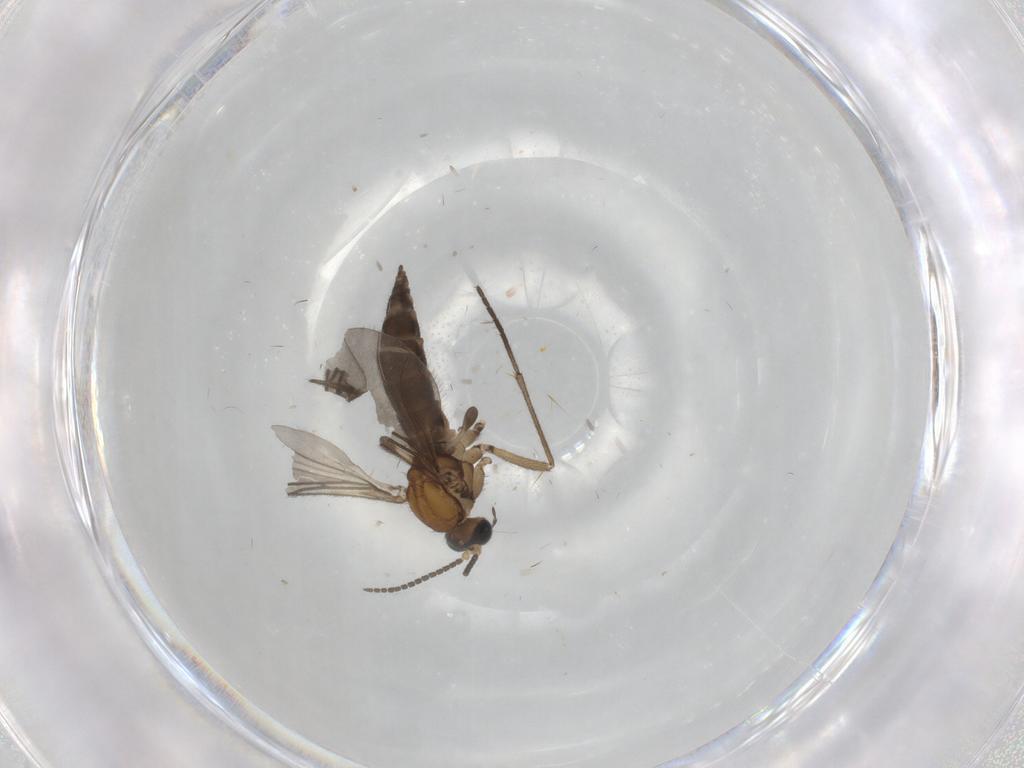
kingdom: Animalia
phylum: Arthropoda
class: Insecta
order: Diptera
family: Sciaridae
